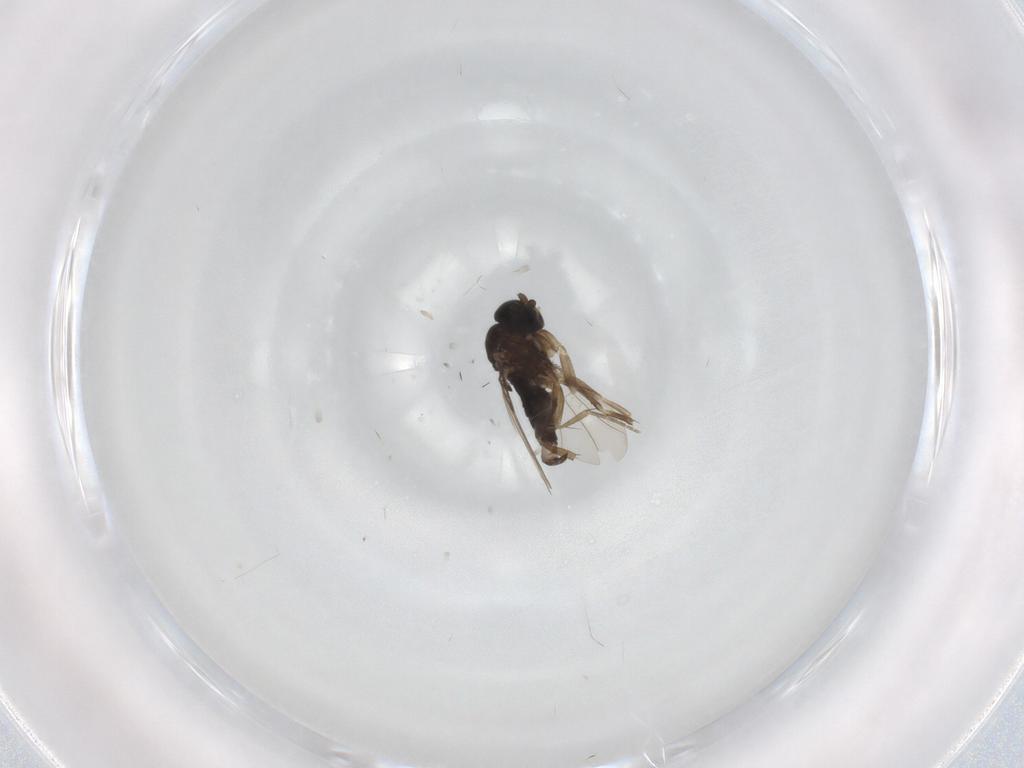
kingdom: Animalia
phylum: Arthropoda
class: Insecta
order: Diptera
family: Phoridae
